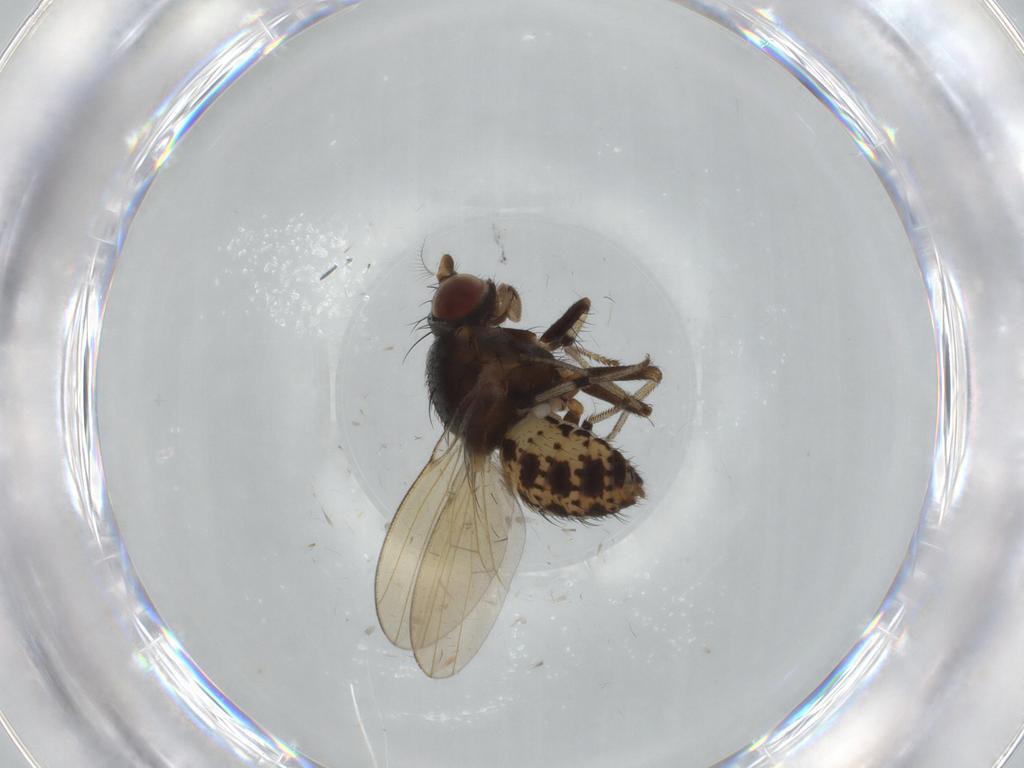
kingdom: Animalia
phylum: Arthropoda
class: Insecta
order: Diptera
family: Chironomidae
